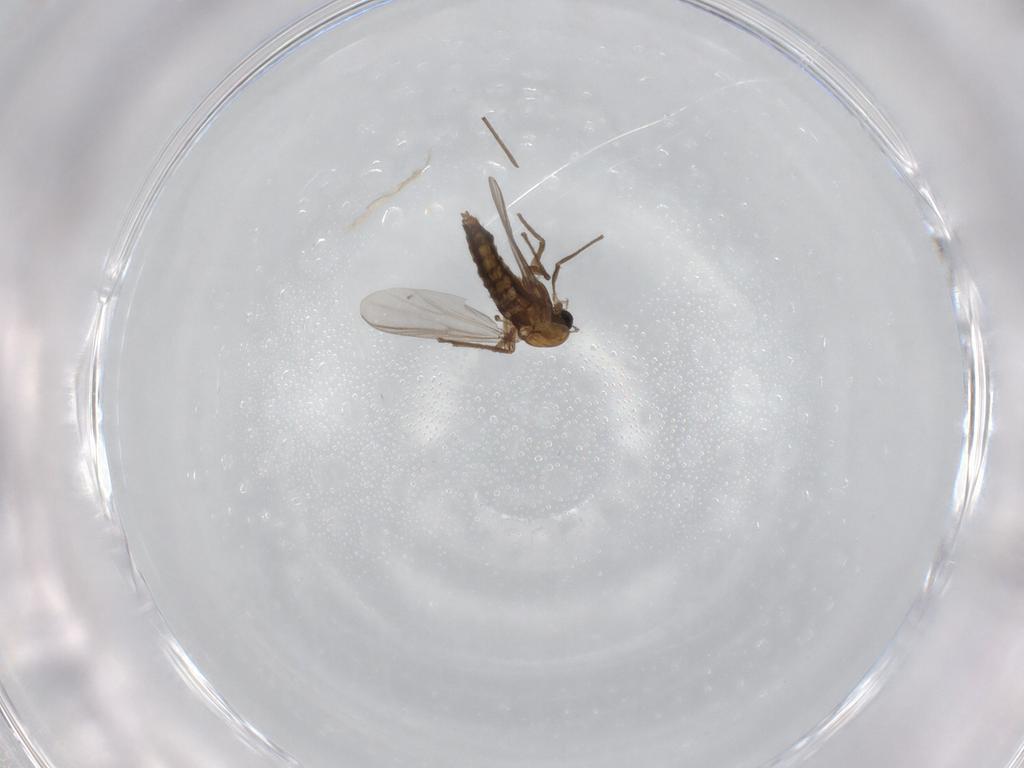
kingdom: Animalia
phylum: Arthropoda
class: Insecta
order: Diptera
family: Chironomidae
